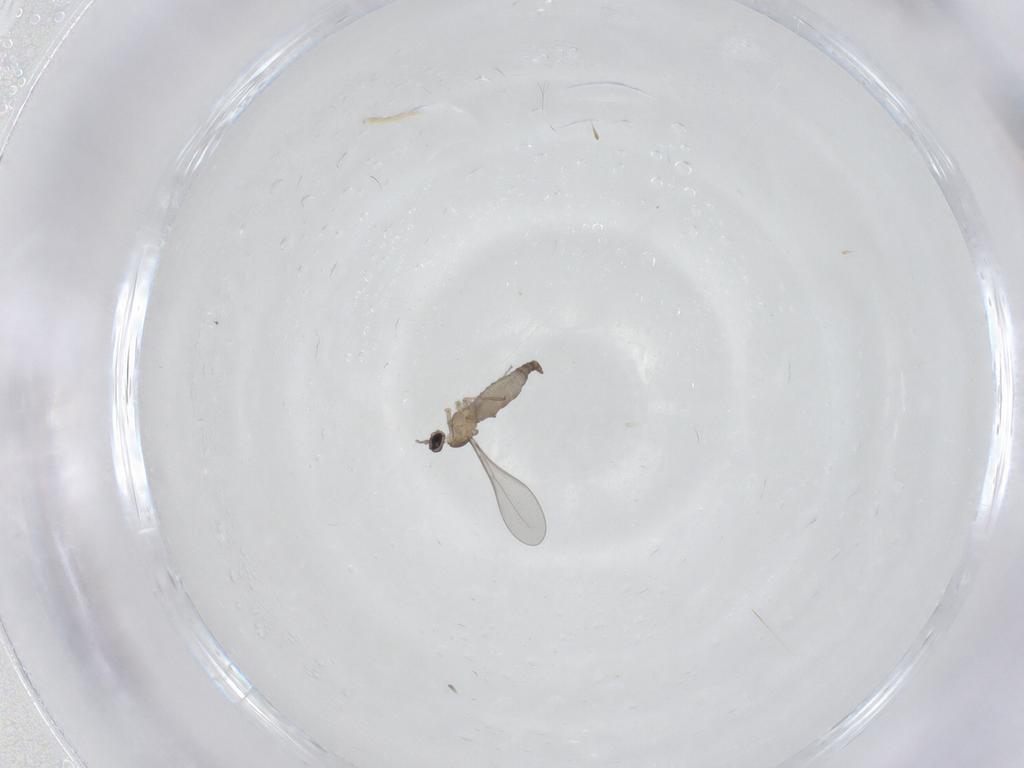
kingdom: Animalia
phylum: Arthropoda
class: Insecta
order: Diptera
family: Cecidomyiidae
